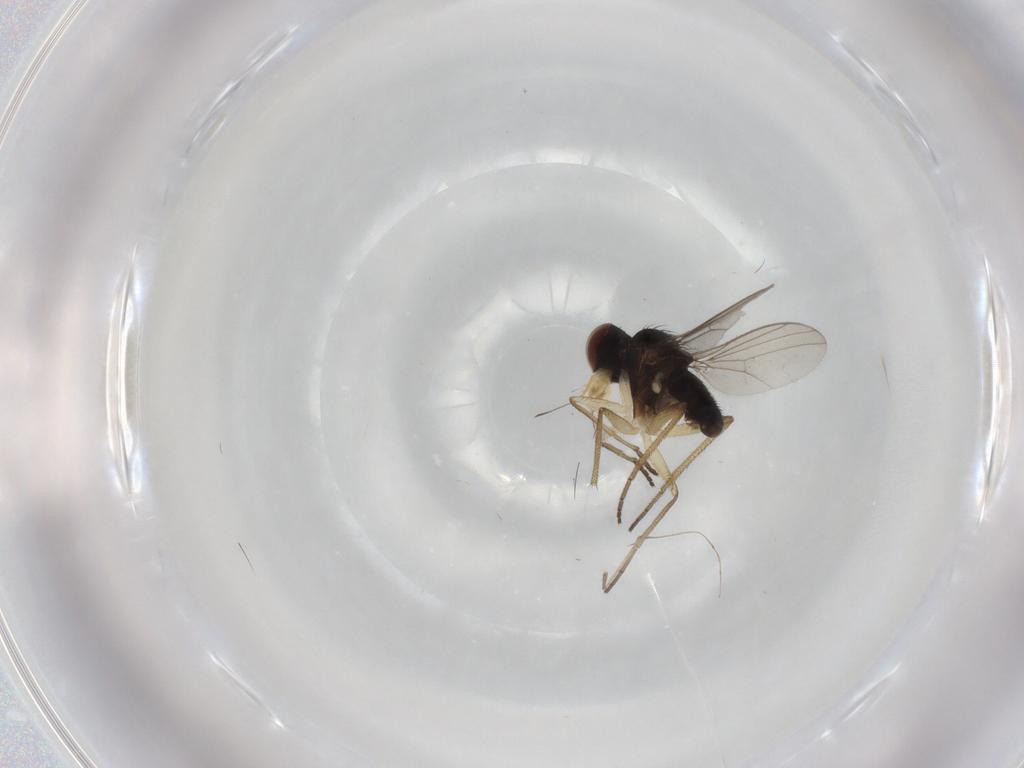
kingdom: Animalia
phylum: Arthropoda
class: Insecta
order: Diptera
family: Dolichopodidae
